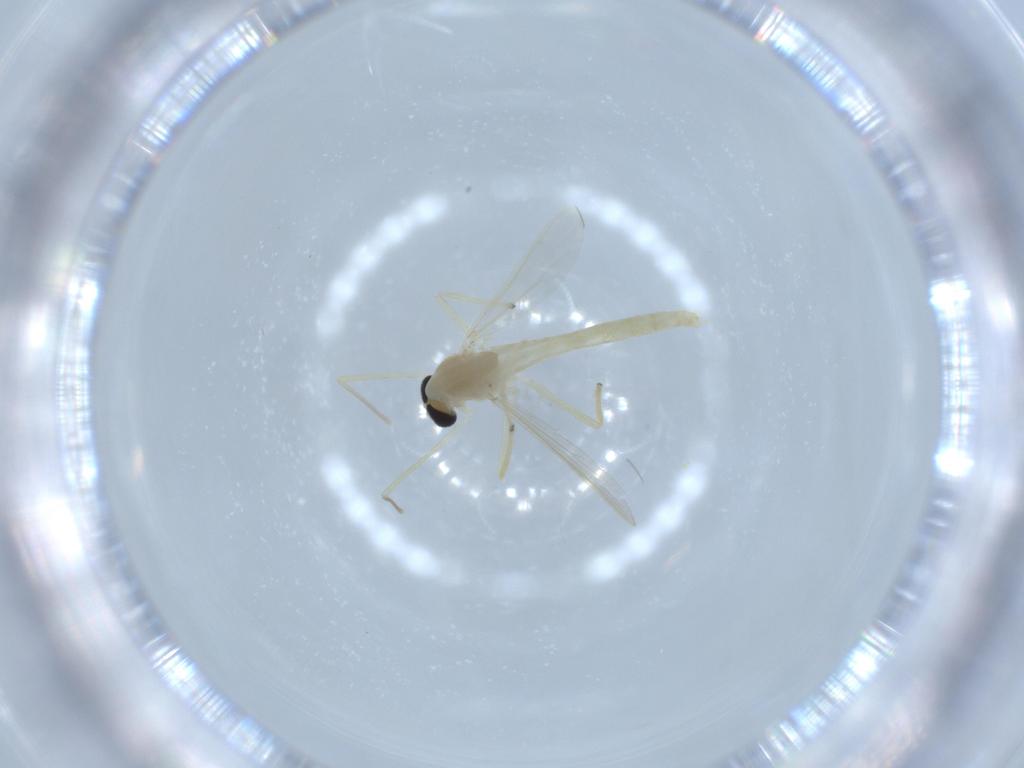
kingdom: Animalia
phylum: Arthropoda
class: Insecta
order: Diptera
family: Chironomidae
